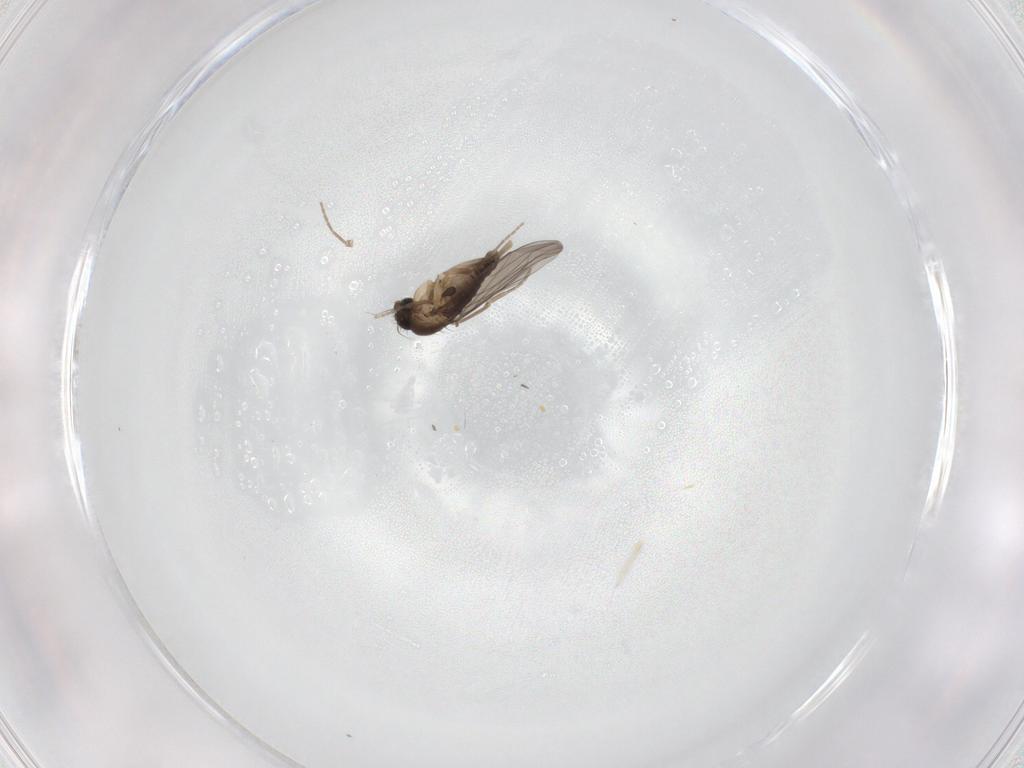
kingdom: Animalia
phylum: Arthropoda
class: Insecta
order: Diptera
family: Phoridae
